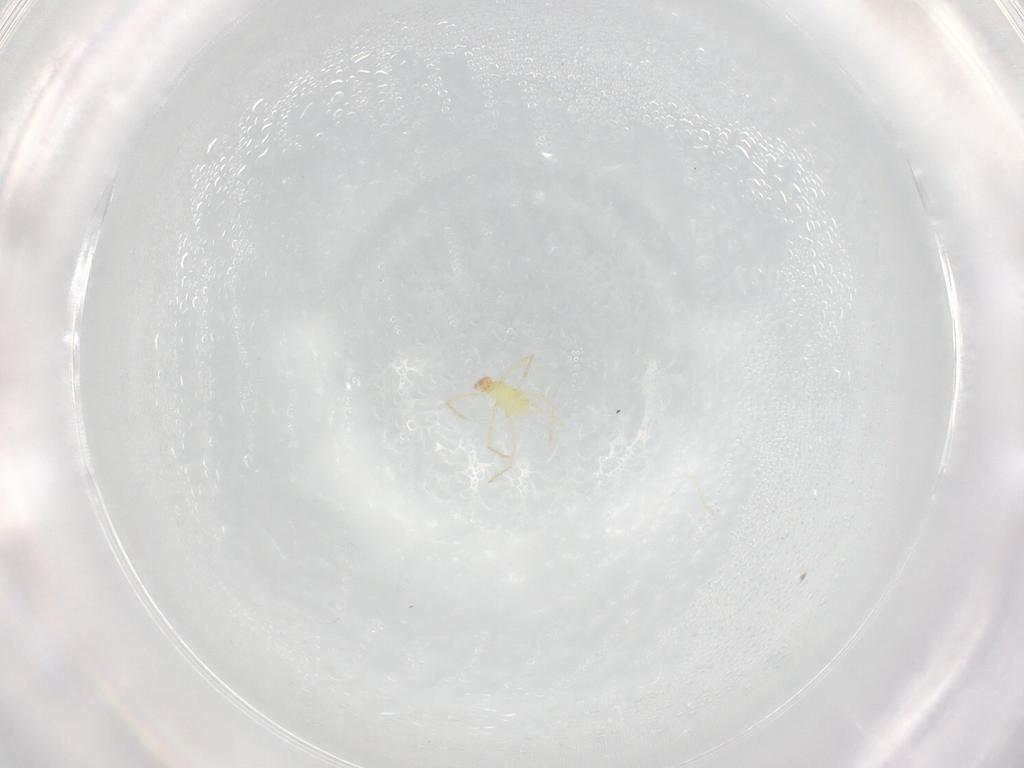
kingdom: Animalia
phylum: Arthropoda
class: Arachnida
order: Trombidiformes
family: Erythraeidae
